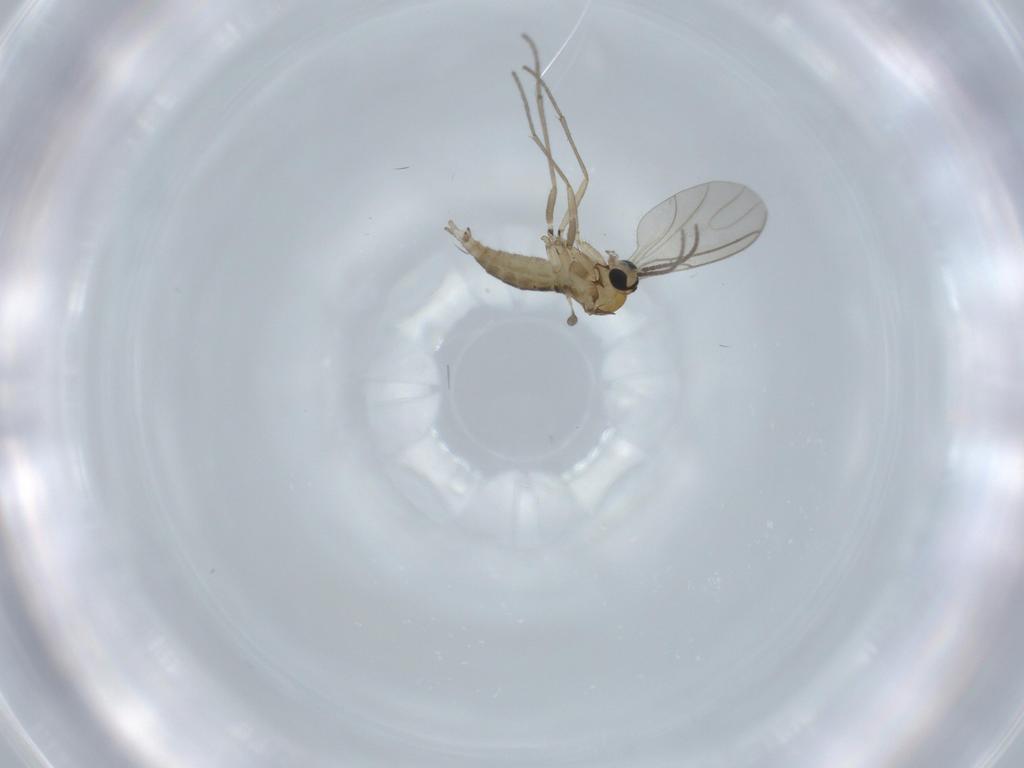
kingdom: Animalia
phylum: Arthropoda
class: Insecta
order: Diptera
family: Sciaridae
